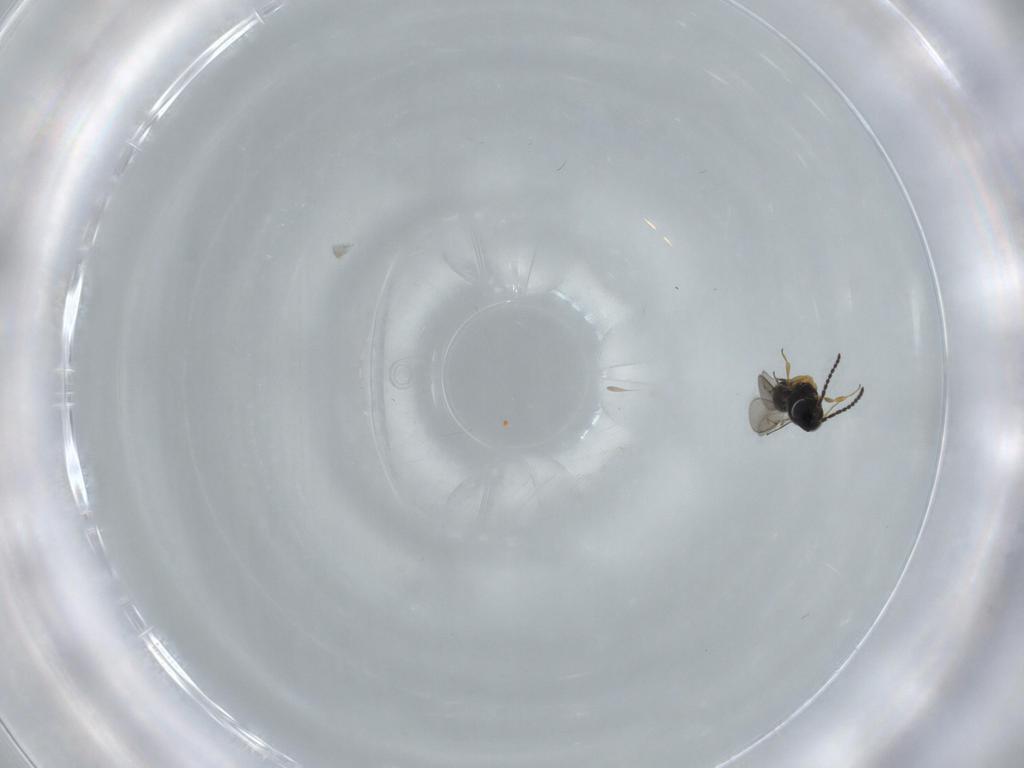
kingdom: Animalia
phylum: Arthropoda
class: Insecta
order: Hymenoptera
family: Scelionidae
